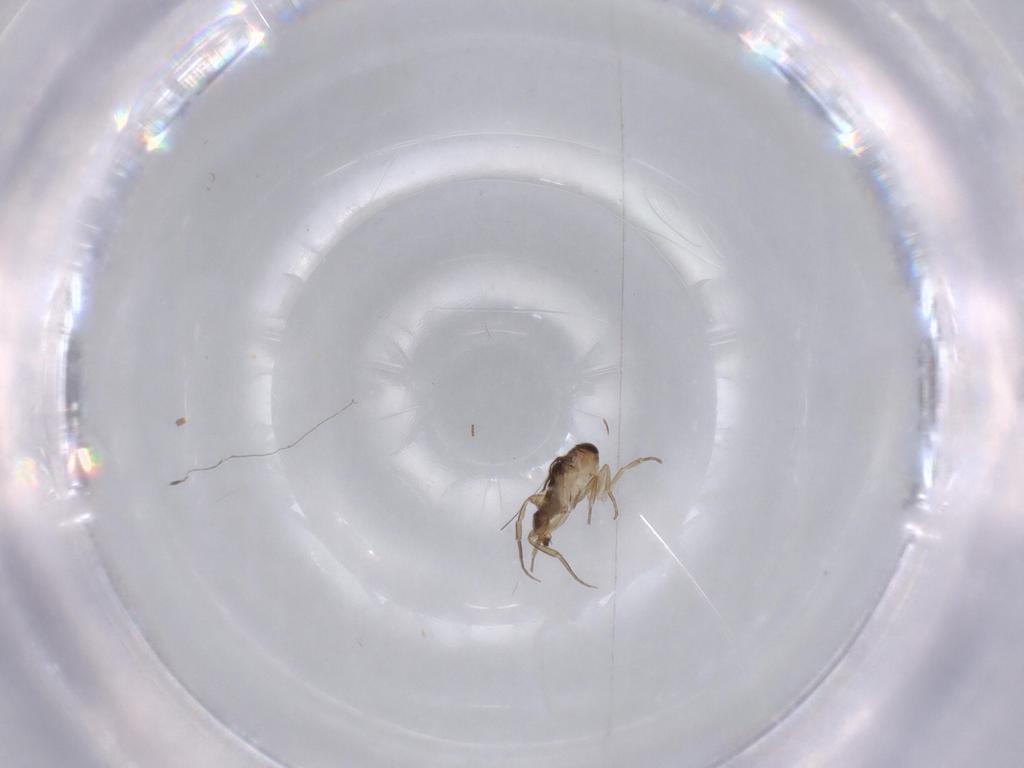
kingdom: Animalia
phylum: Arthropoda
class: Insecta
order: Diptera
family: Phoridae
